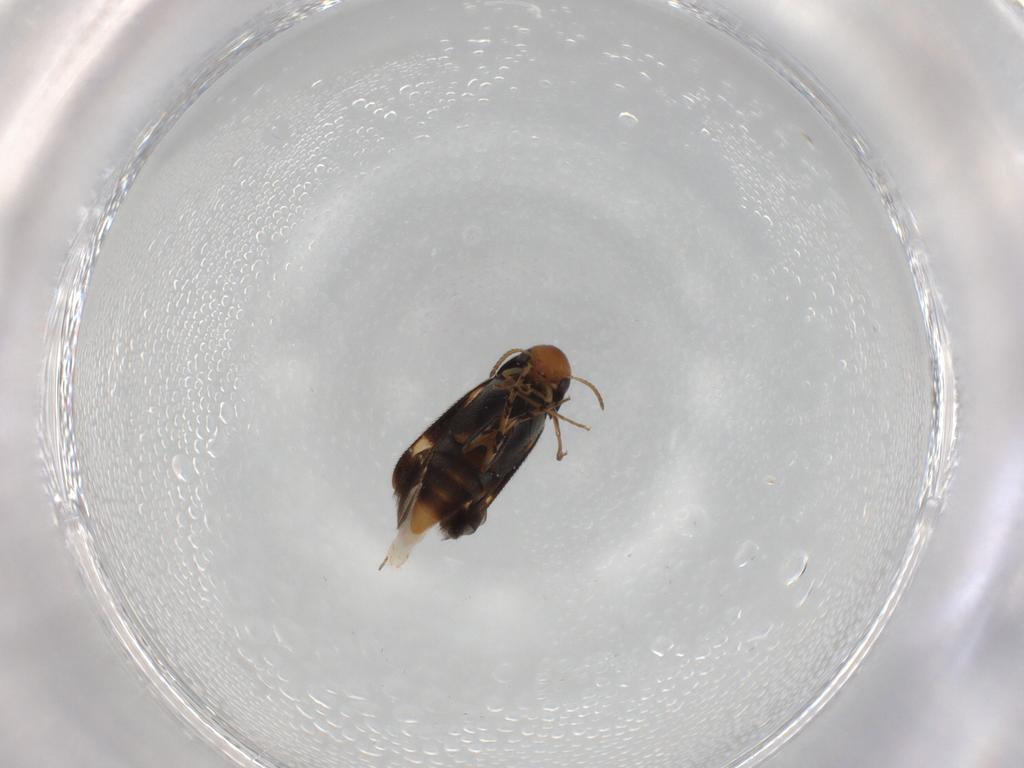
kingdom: Animalia
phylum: Arthropoda
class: Insecta
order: Coleoptera
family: Mordellidae
